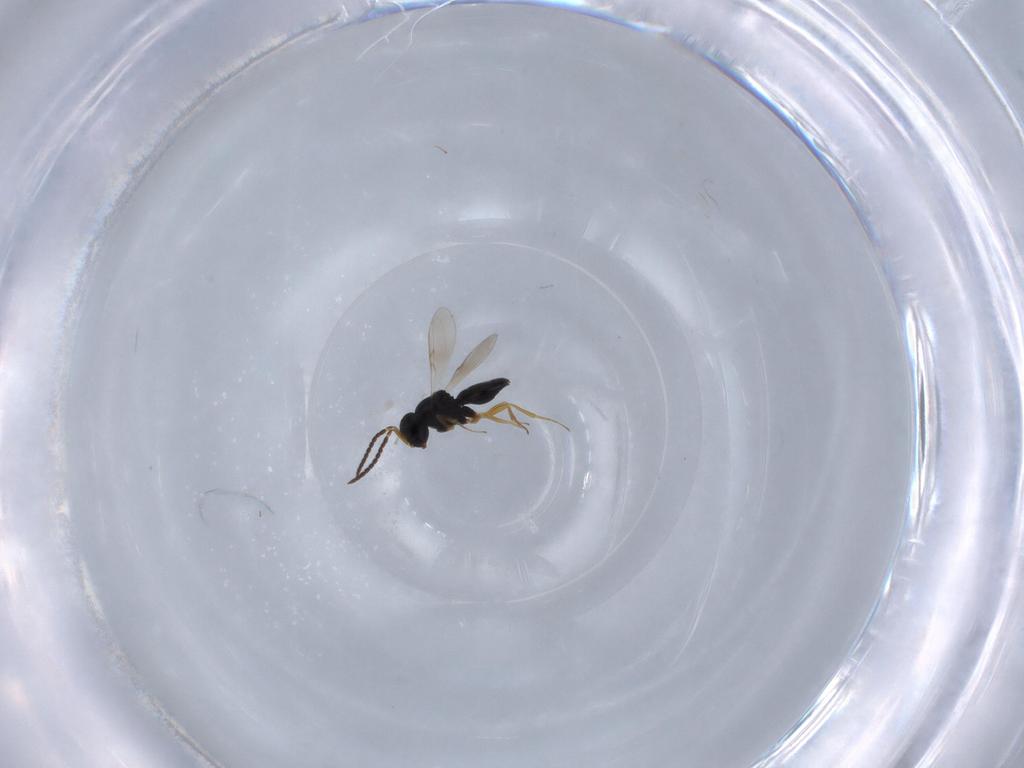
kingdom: Animalia
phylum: Arthropoda
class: Insecta
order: Hymenoptera
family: Scelionidae
